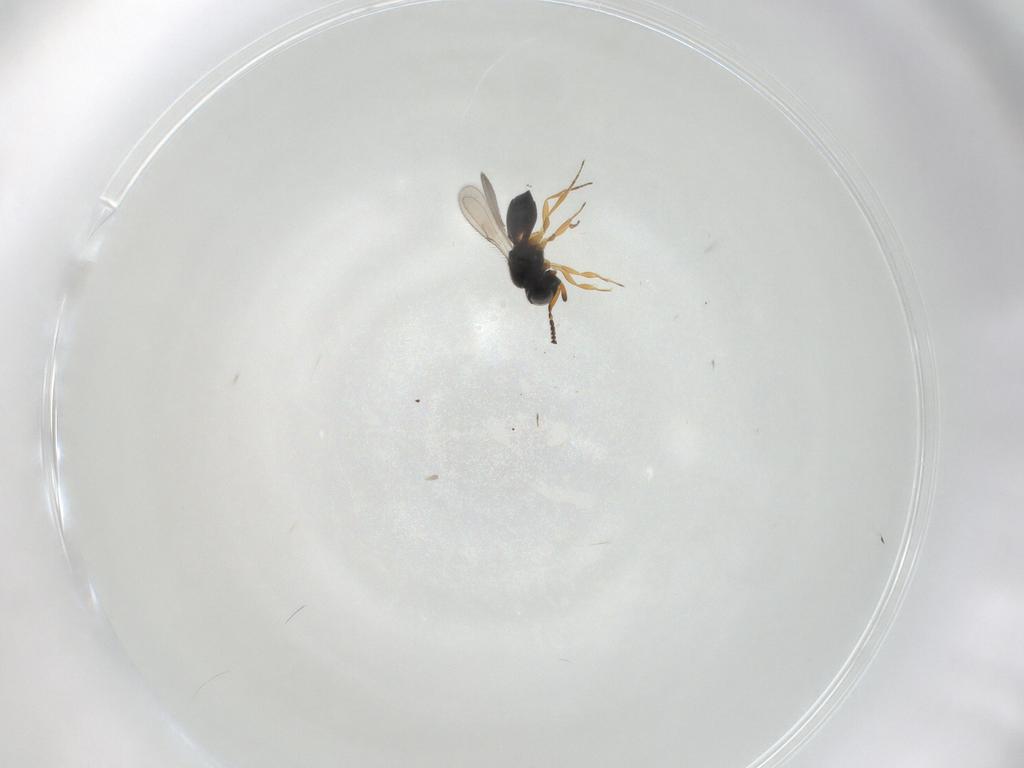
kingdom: Animalia
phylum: Arthropoda
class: Insecta
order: Hymenoptera
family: Scelionidae
